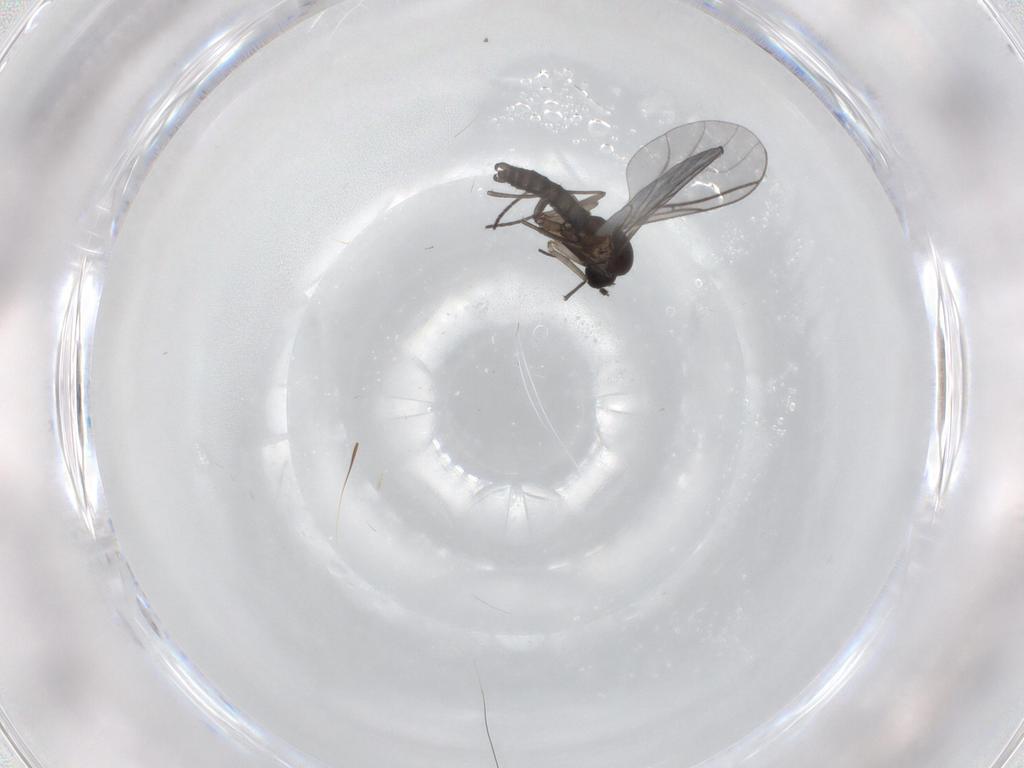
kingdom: Animalia
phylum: Arthropoda
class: Insecta
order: Diptera
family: Sciaridae
